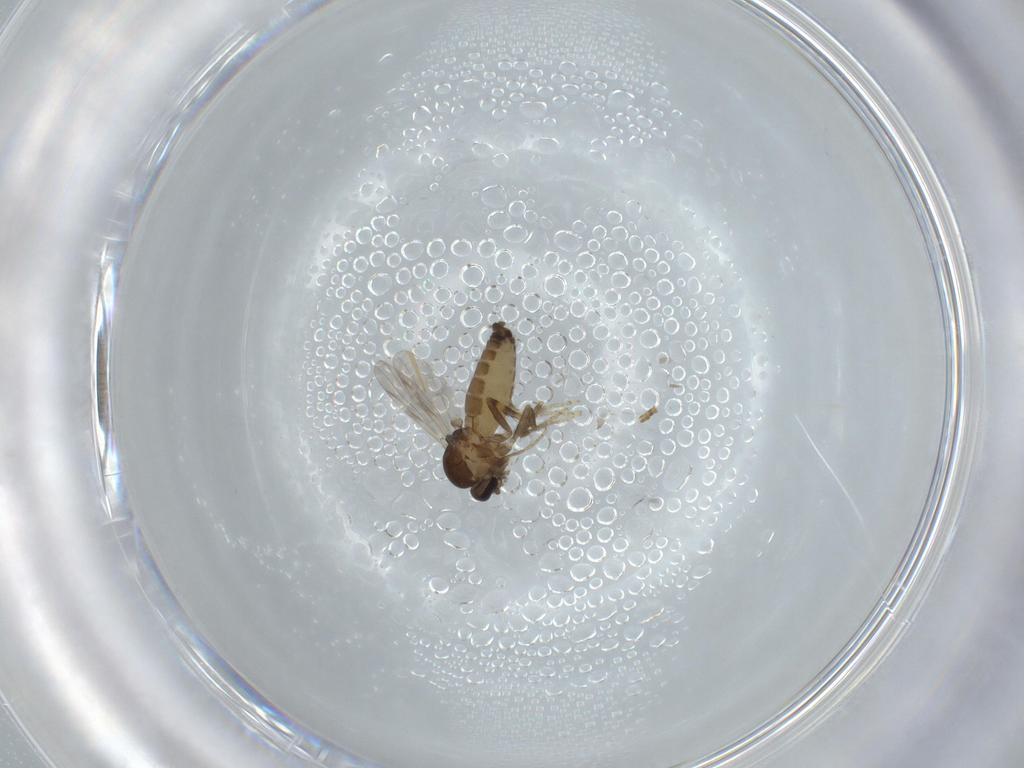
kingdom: Animalia
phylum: Arthropoda
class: Insecta
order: Diptera
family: Ceratopogonidae
